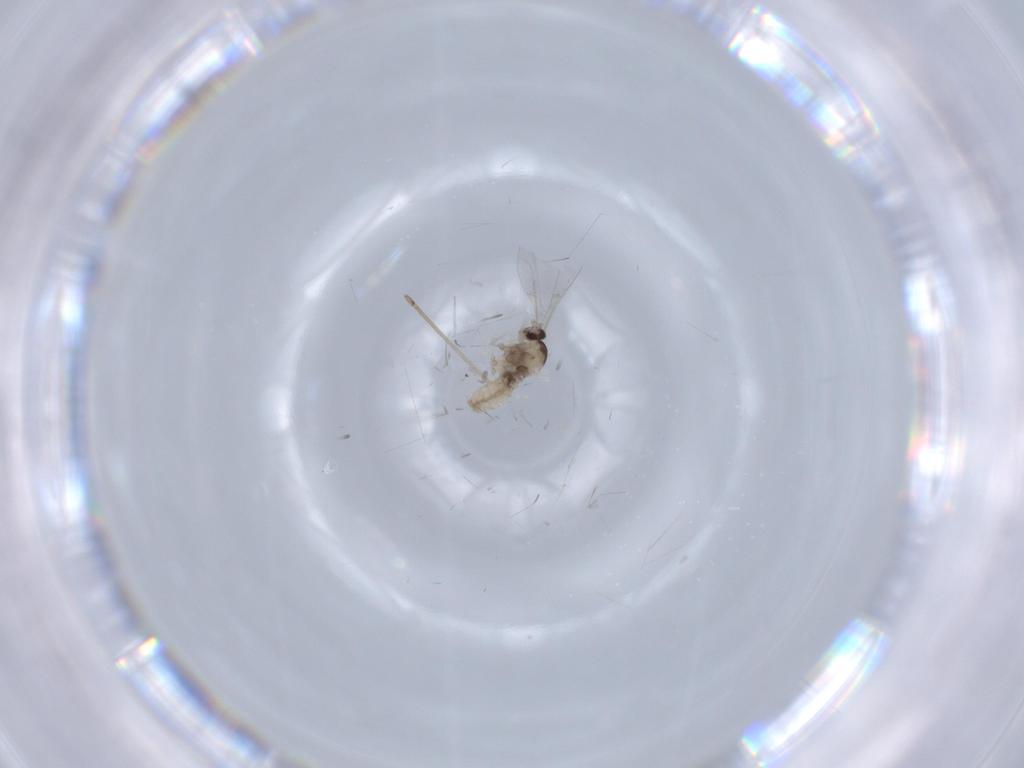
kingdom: Animalia
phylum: Arthropoda
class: Insecta
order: Diptera
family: Cecidomyiidae
